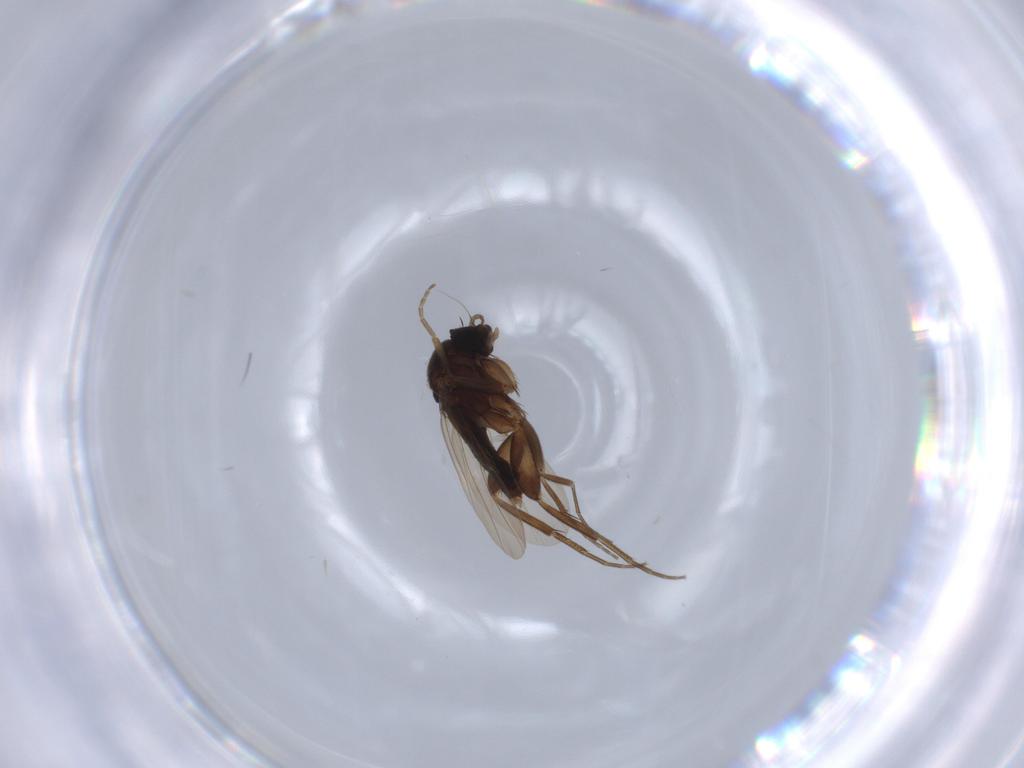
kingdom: Animalia
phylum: Arthropoda
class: Insecta
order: Diptera
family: Phoridae
